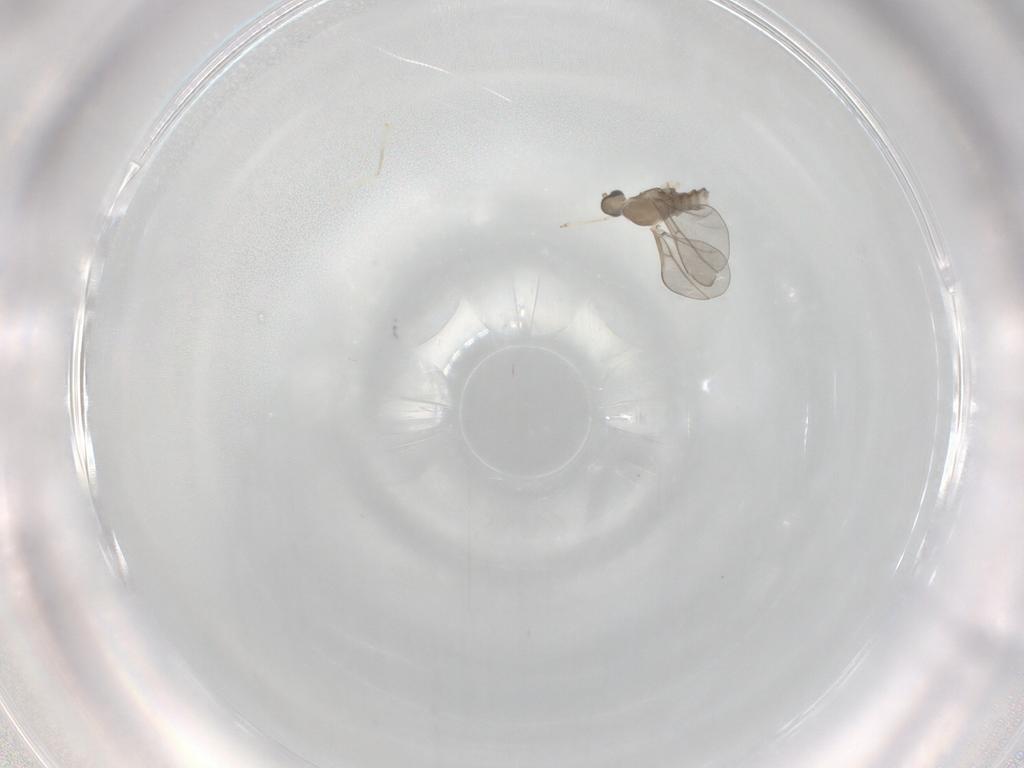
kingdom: Animalia
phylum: Arthropoda
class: Insecta
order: Diptera
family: Cecidomyiidae
